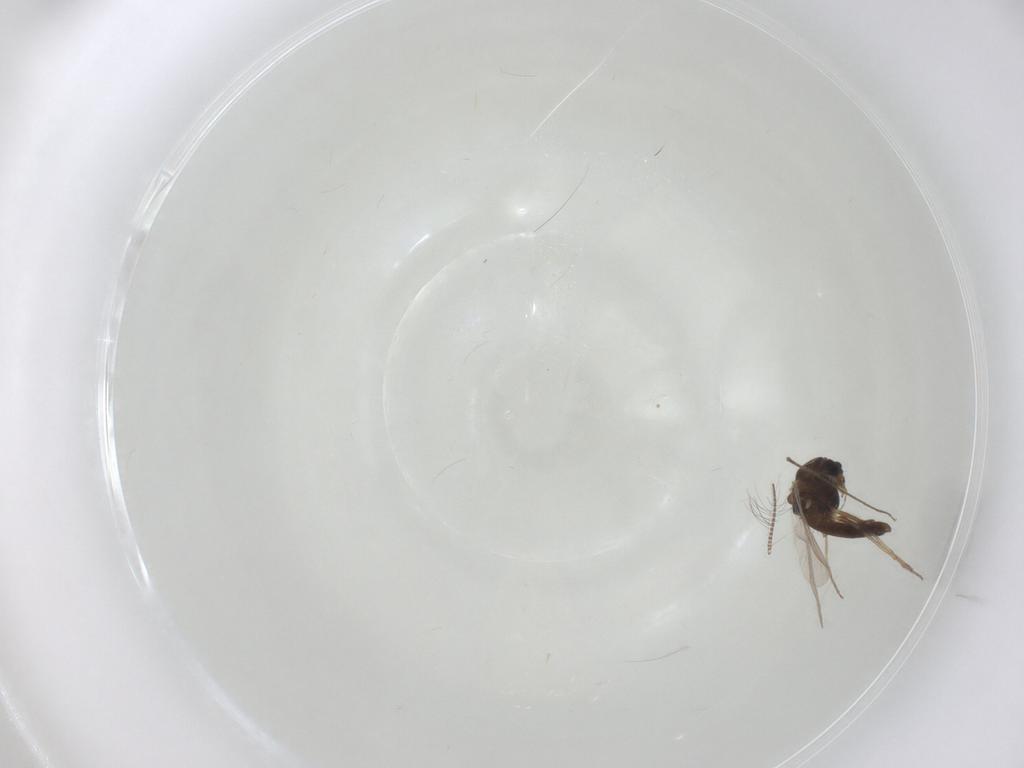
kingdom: Animalia
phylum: Arthropoda
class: Insecta
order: Diptera
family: Chironomidae
